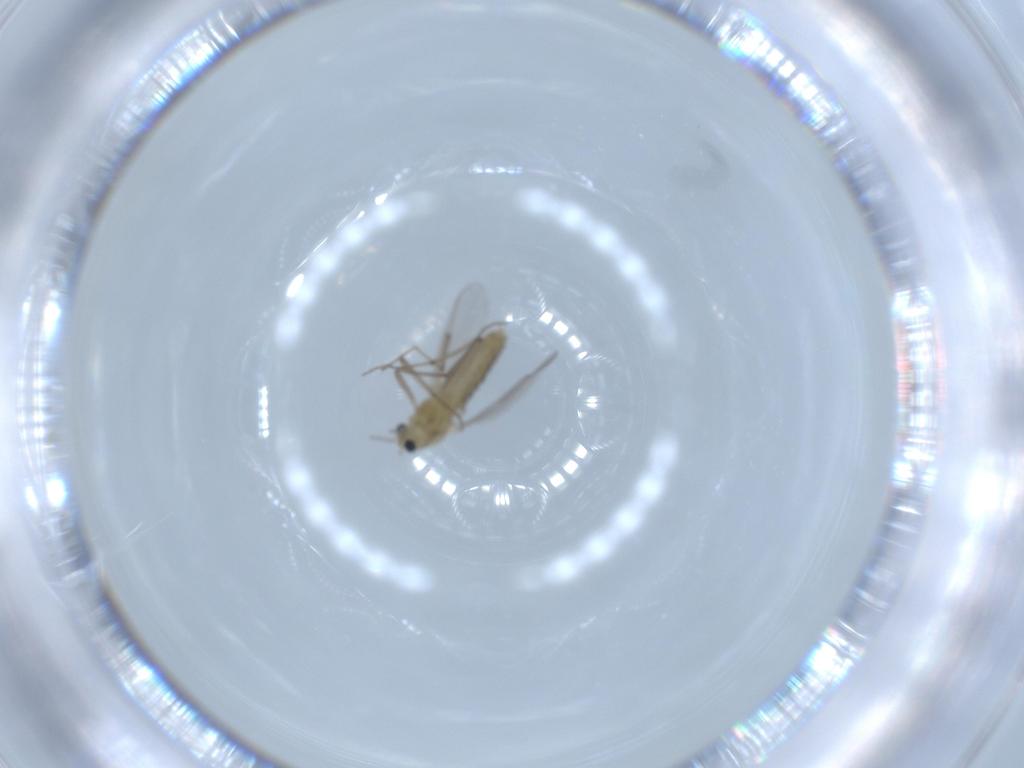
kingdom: Animalia
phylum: Arthropoda
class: Insecta
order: Diptera
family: Chironomidae
